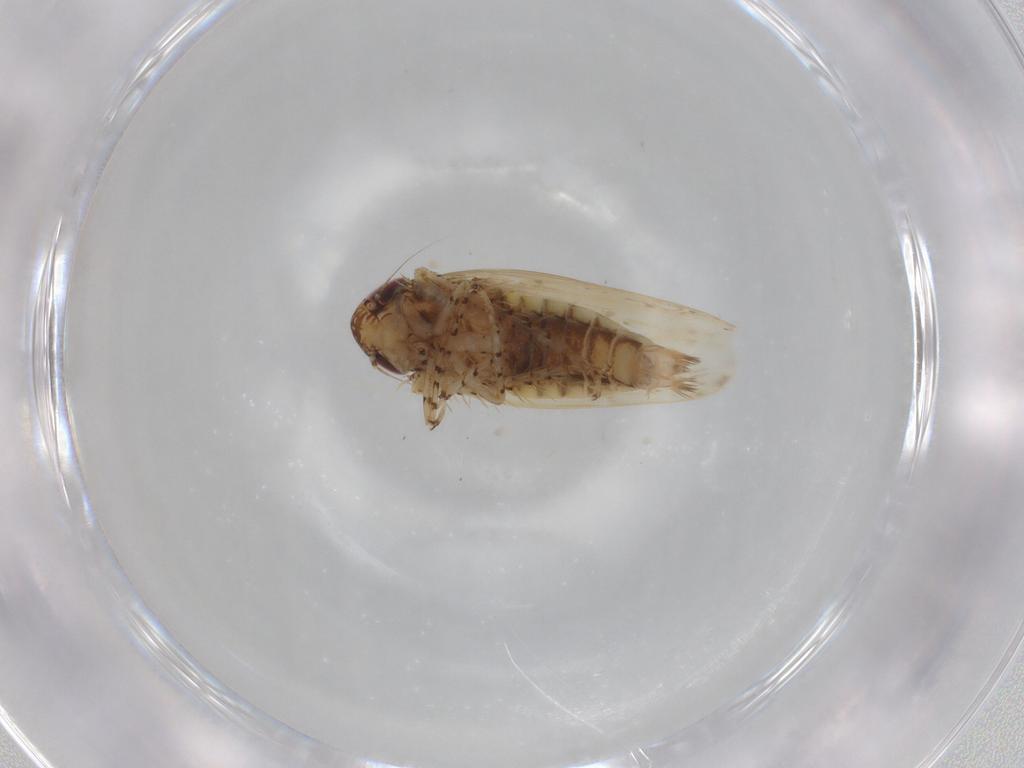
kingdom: Animalia
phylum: Arthropoda
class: Insecta
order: Hemiptera
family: Cicadellidae
